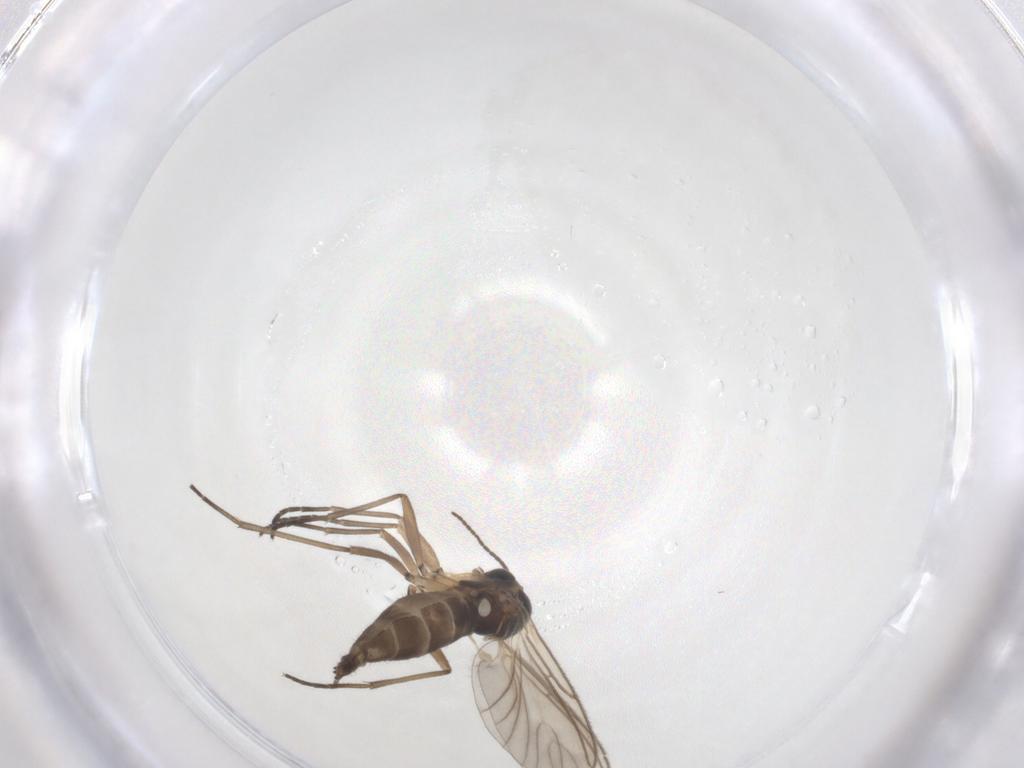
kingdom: Animalia
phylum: Arthropoda
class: Insecta
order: Diptera
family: Chironomidae
